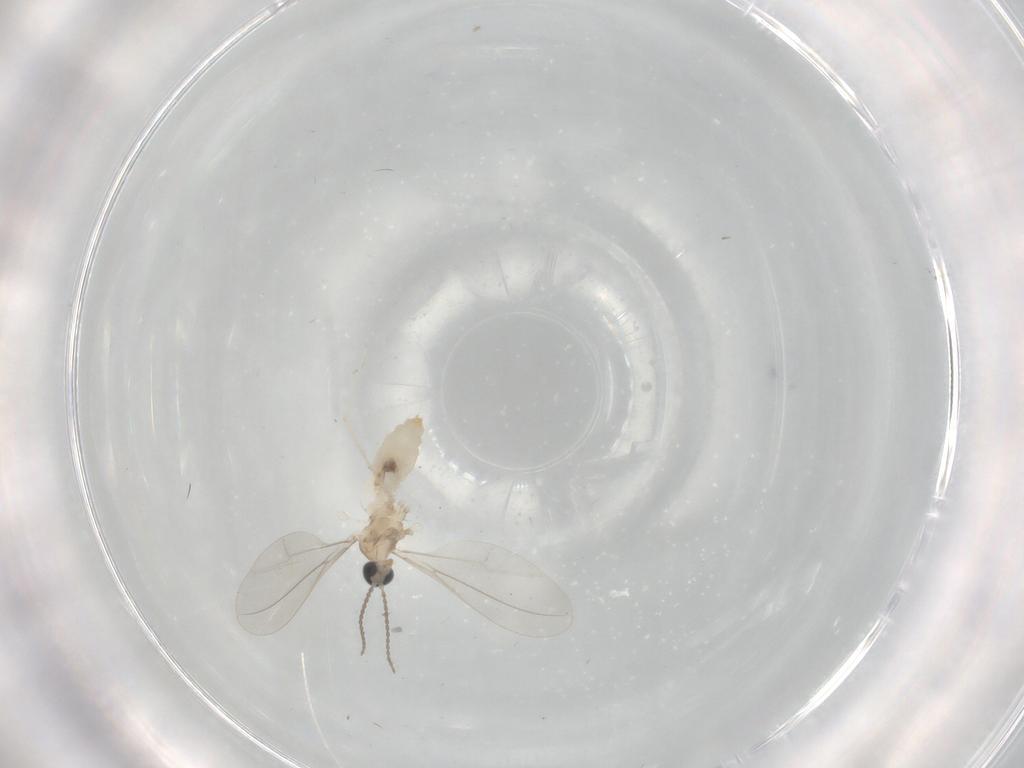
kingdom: Animalia
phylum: Arthropoda
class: Insecta
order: Diptera
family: Cecidomyiidae
